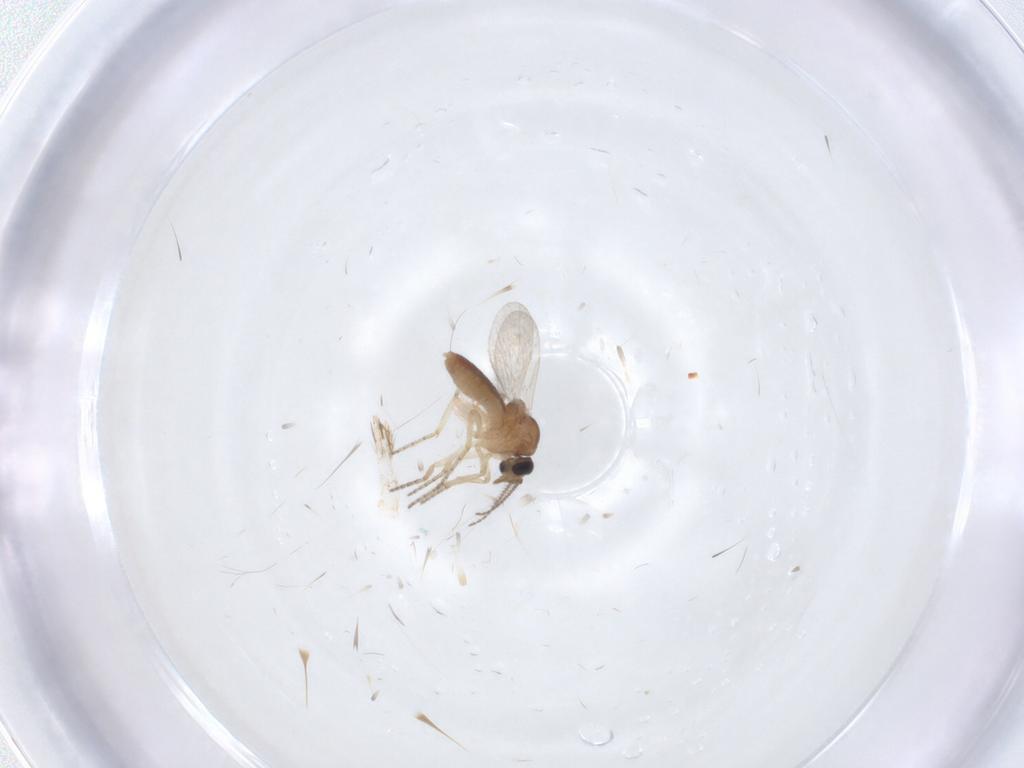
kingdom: Animalia
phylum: Arthropoda
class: Insecta
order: Diptera
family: Ceratopogonidae
